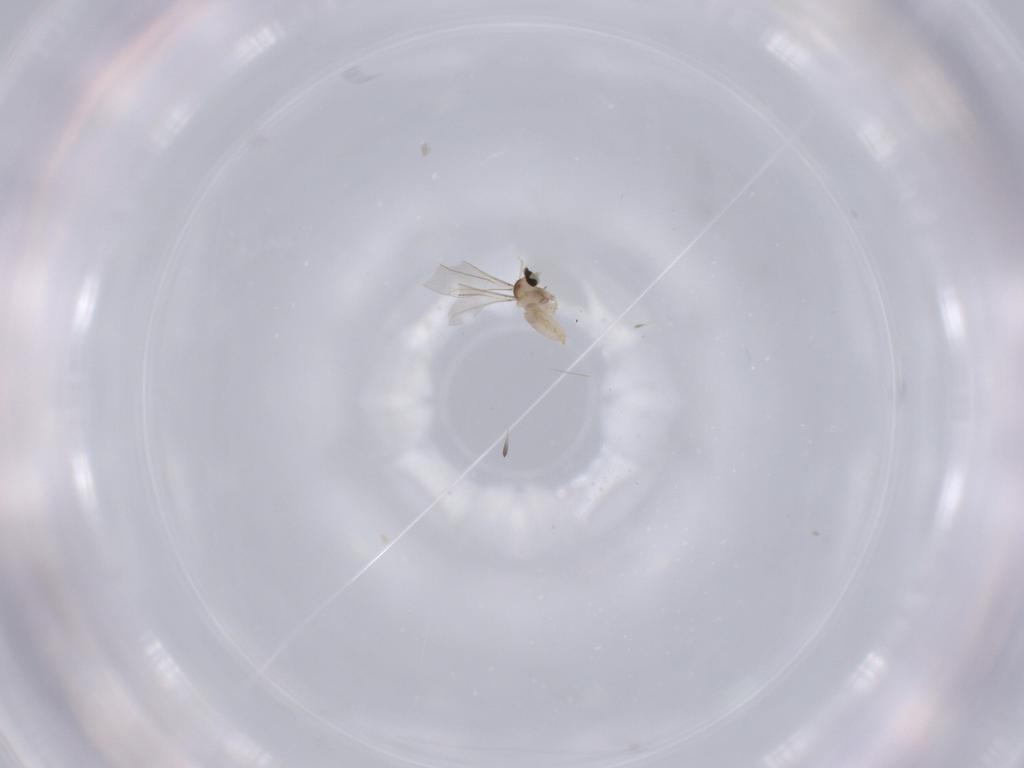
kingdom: Animalia
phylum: Arthropoda
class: Insecta
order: Diptera
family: Cecidomyiidae
